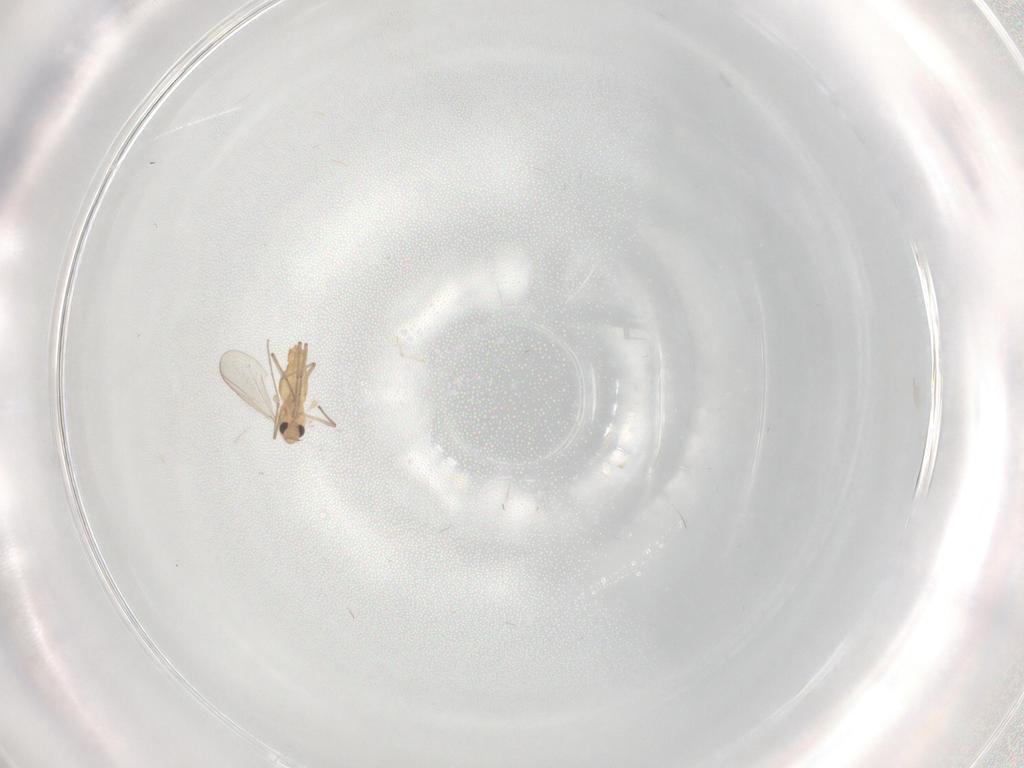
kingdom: Animalia
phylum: Arthropoda
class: Insecta
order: Diptera
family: Chironomidae
